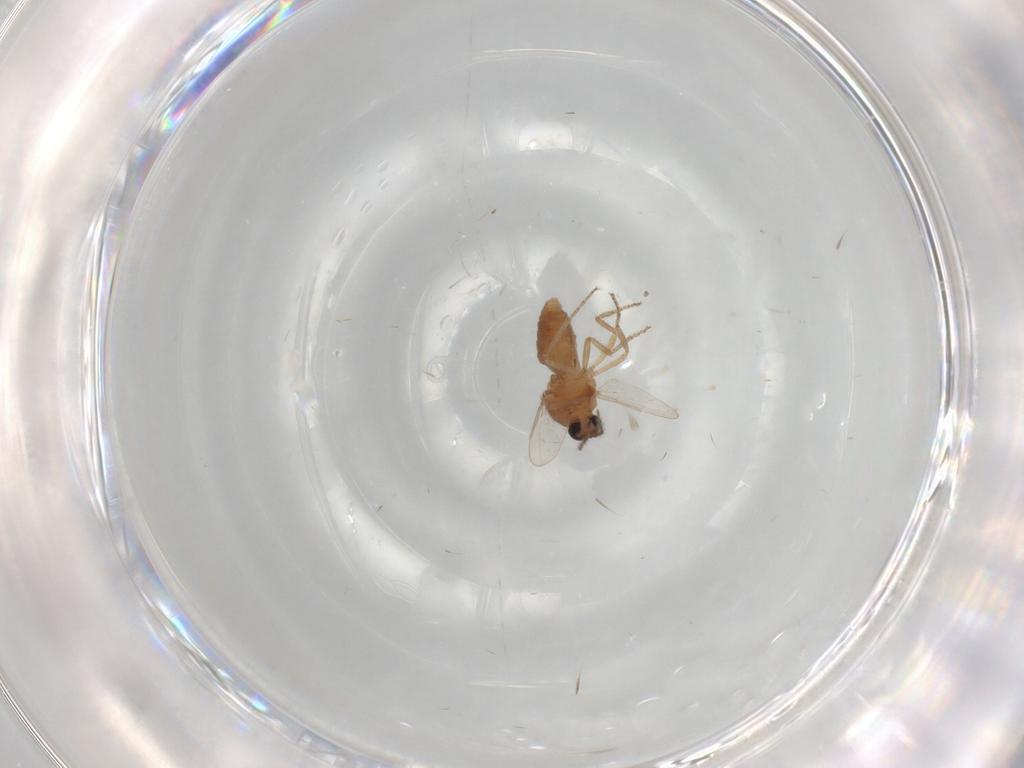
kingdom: Animalia
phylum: Arthropoda
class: Insecta
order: Diptera
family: Ceratopogonidae
